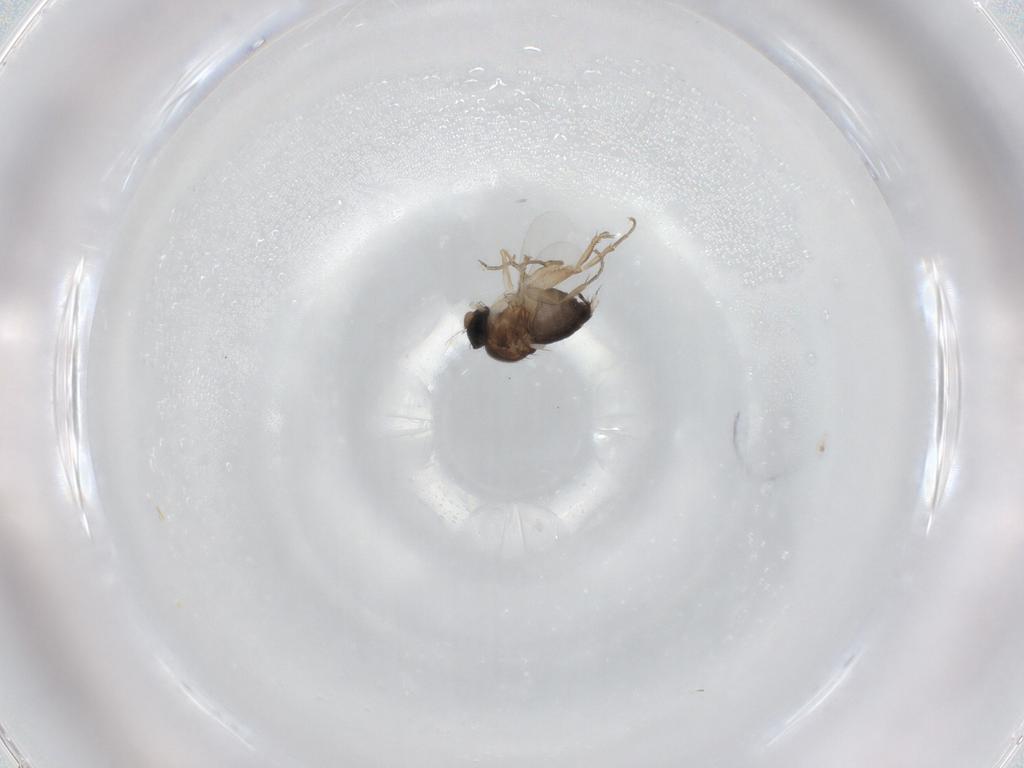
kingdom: Animalia
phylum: Arthropoda
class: Insecta
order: Diptera
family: Phoridae
